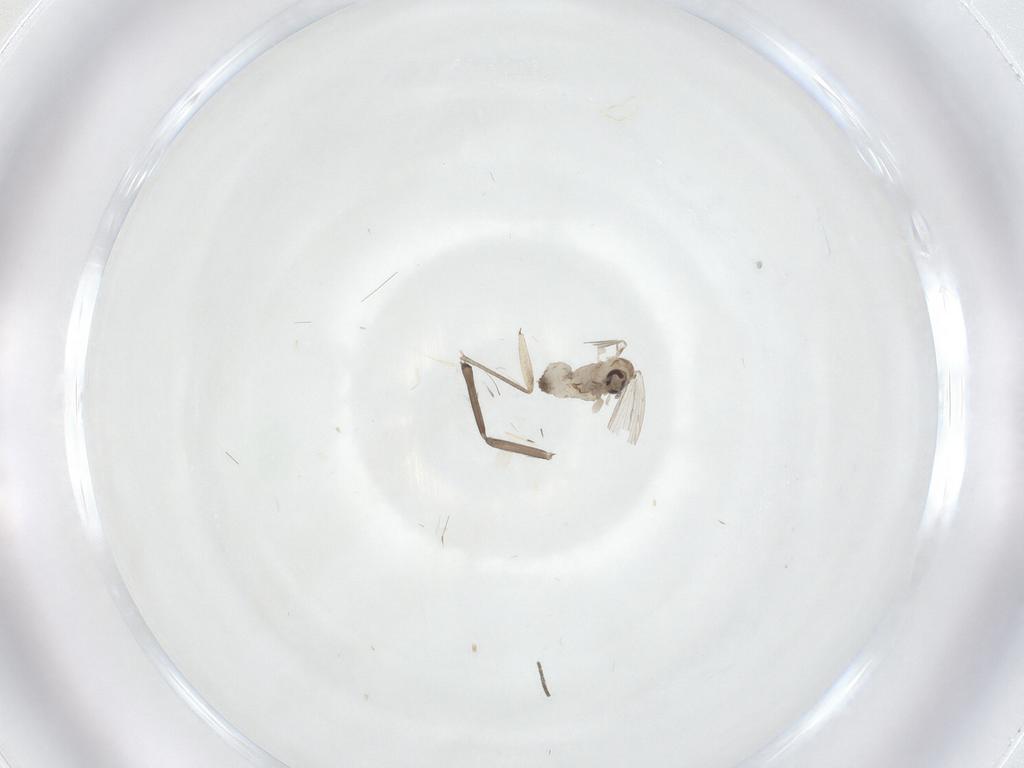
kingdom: Animalia
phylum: Arthropoda
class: Insecta
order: Diptera
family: Psychodidae
